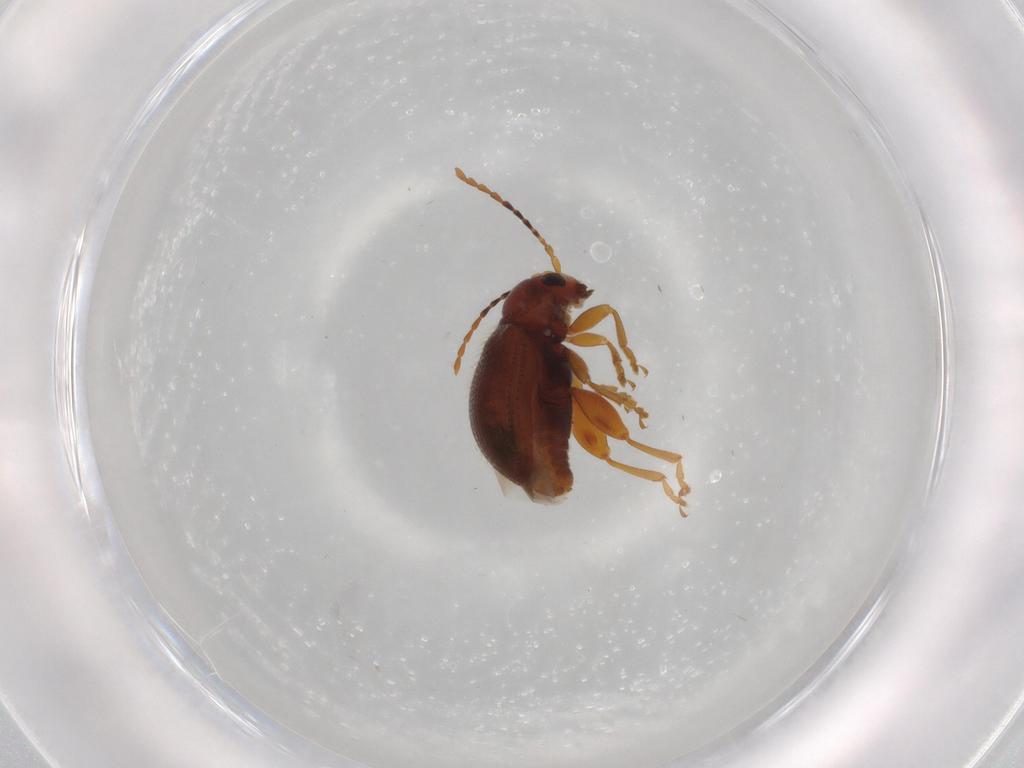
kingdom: Animalia
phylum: Arthropoda
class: Insecta
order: Coleoptera
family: Chrysomelidae
